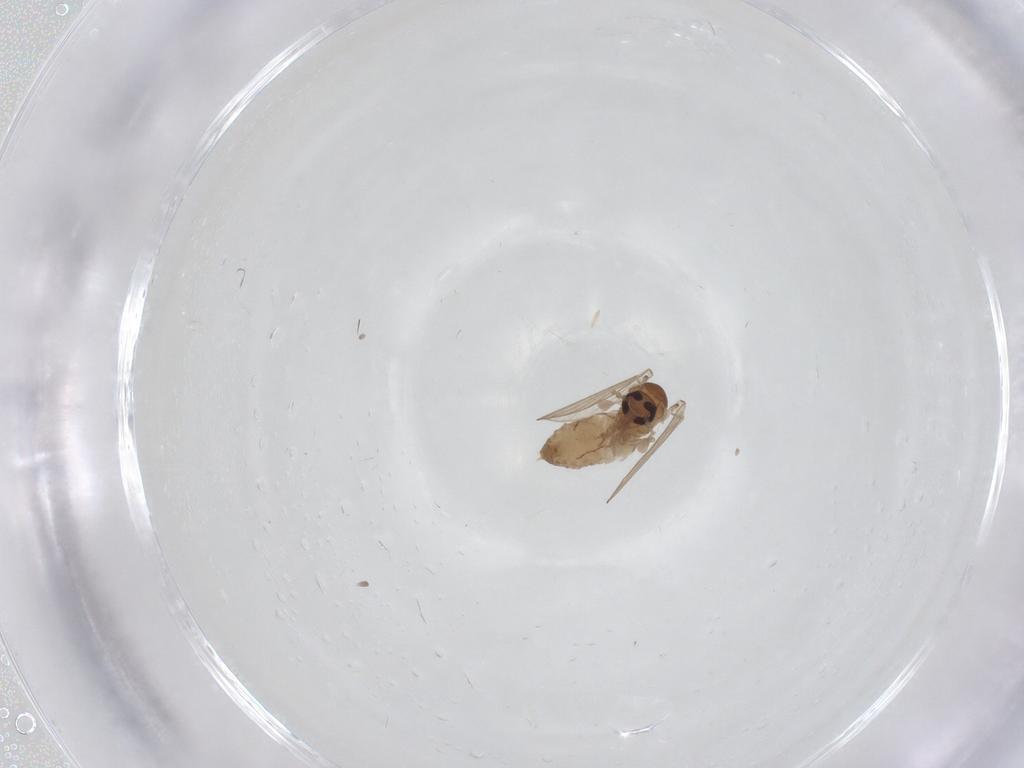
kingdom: Animalia
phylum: Arthropoda
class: Insecta
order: Diptera
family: Psychodidae
